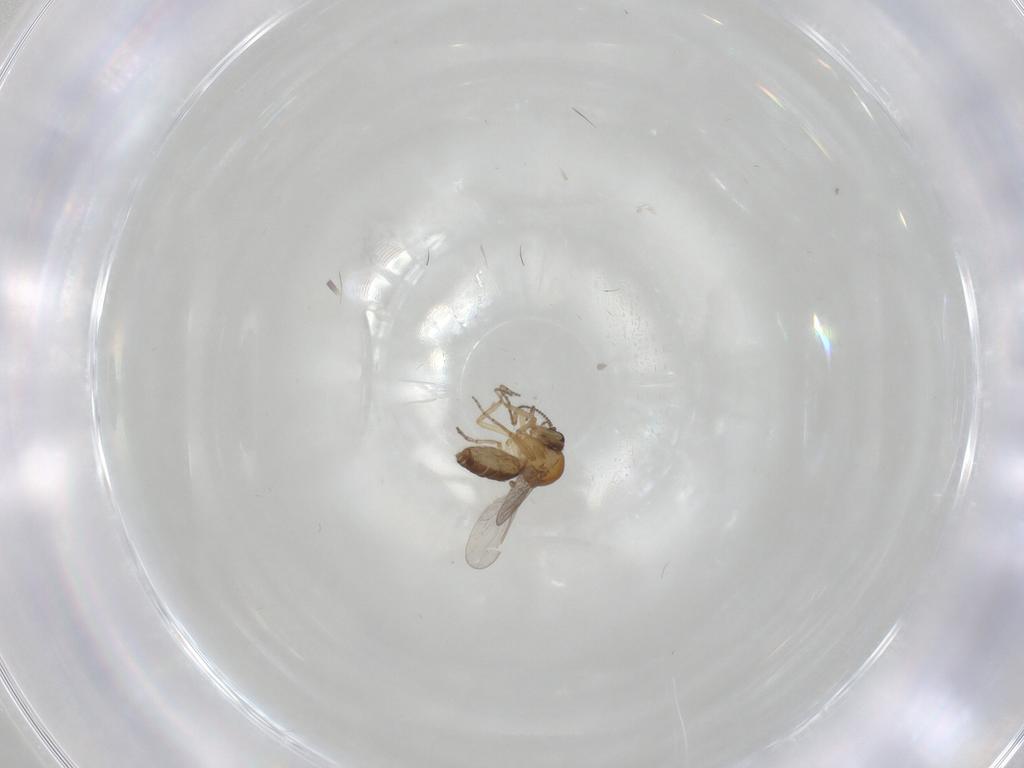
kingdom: Animalia
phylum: Arthropoda
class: Insecta
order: Diptera
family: Ceratopogonidae
